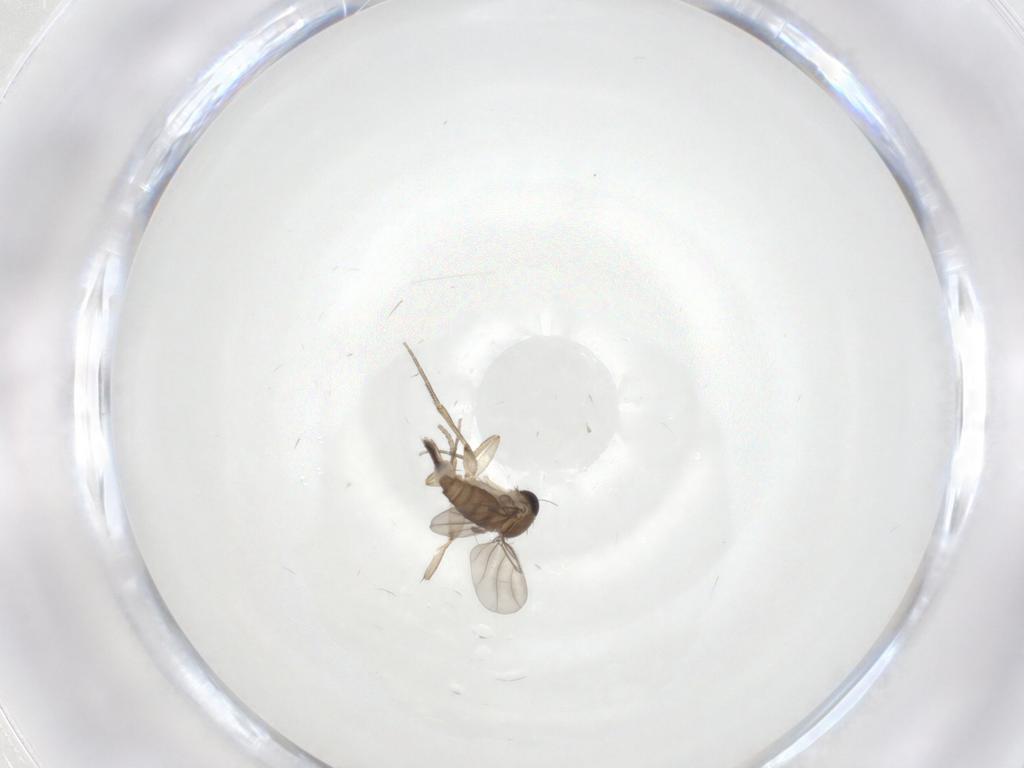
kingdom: Animalia
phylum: Arthropoda
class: Insecta
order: Diptera
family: Phoridae
